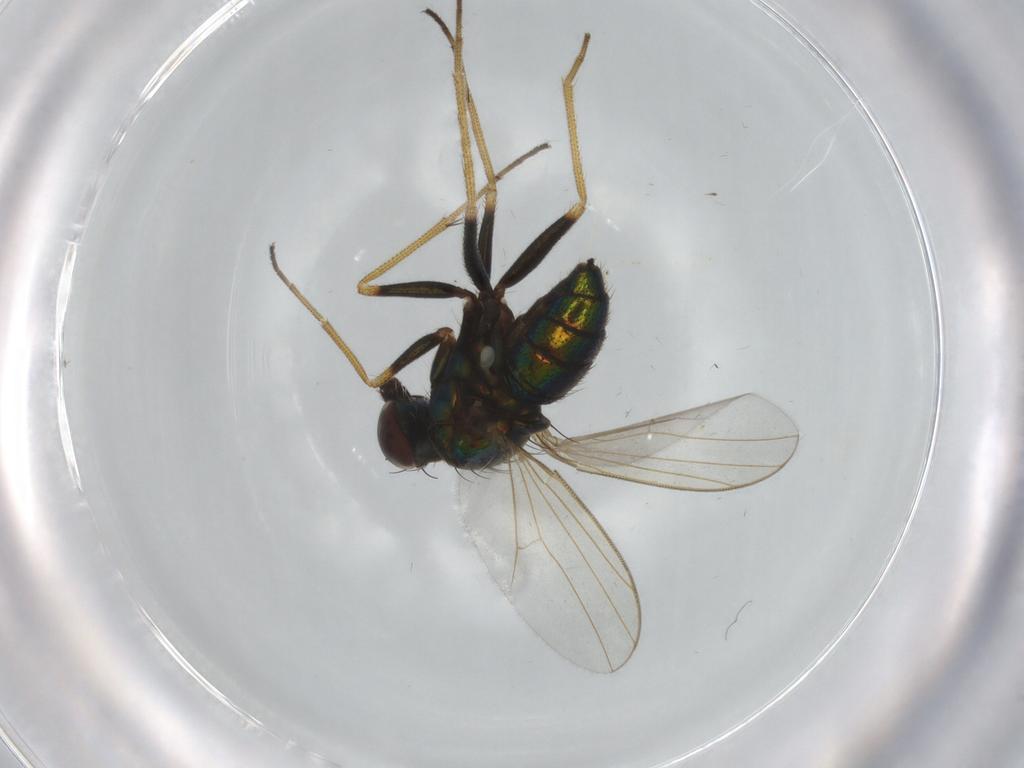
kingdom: Animalia
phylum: Arthropoda
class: Insecta
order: Diptera
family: Dolichopodidae
